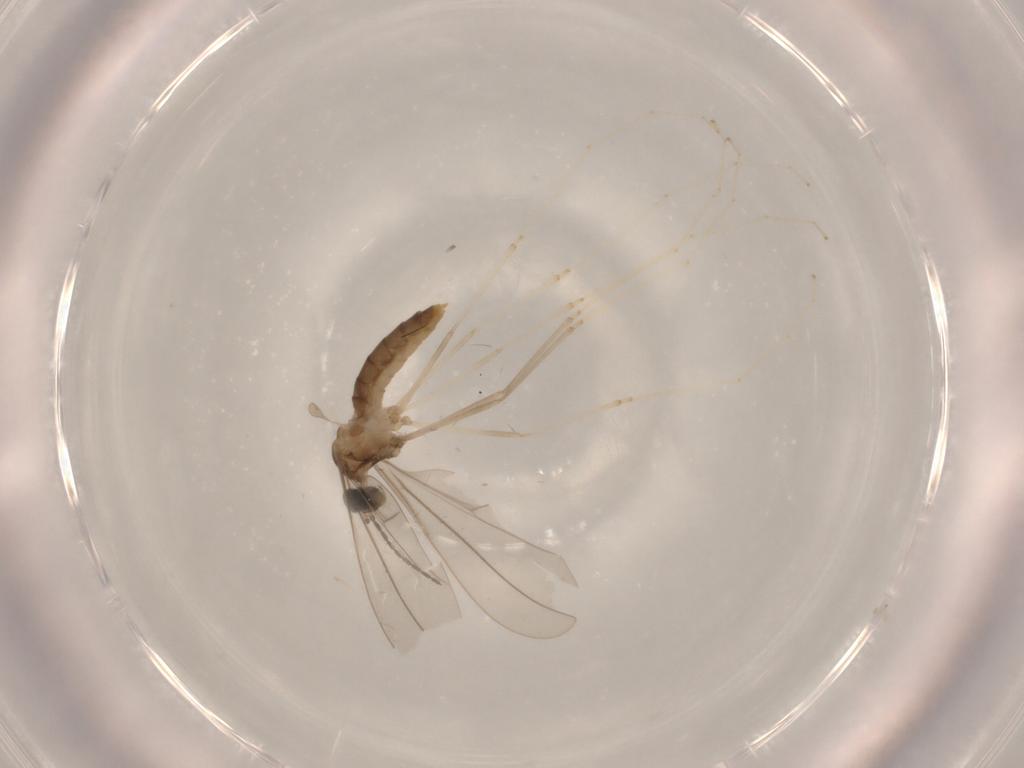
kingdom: Animalia
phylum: Arthropoda
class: Insecta
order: Diptera
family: Cecidomyiidae
